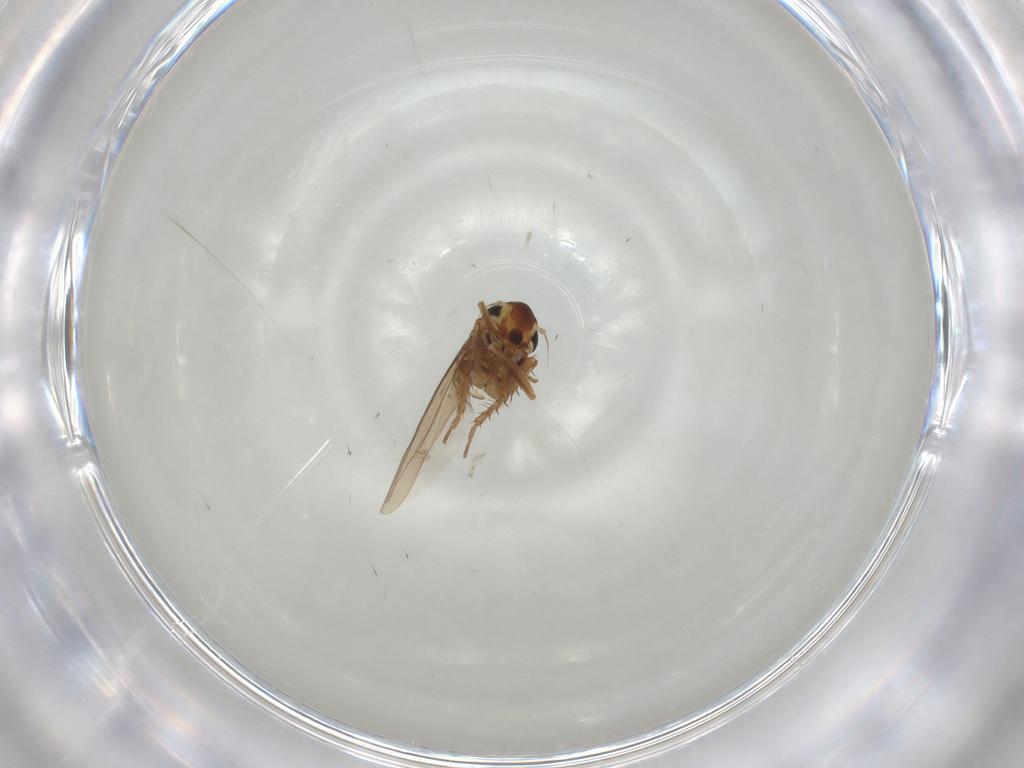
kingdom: Animalia
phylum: Arthropoda
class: Insecta
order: Hemiptera
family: Cicadellidae
